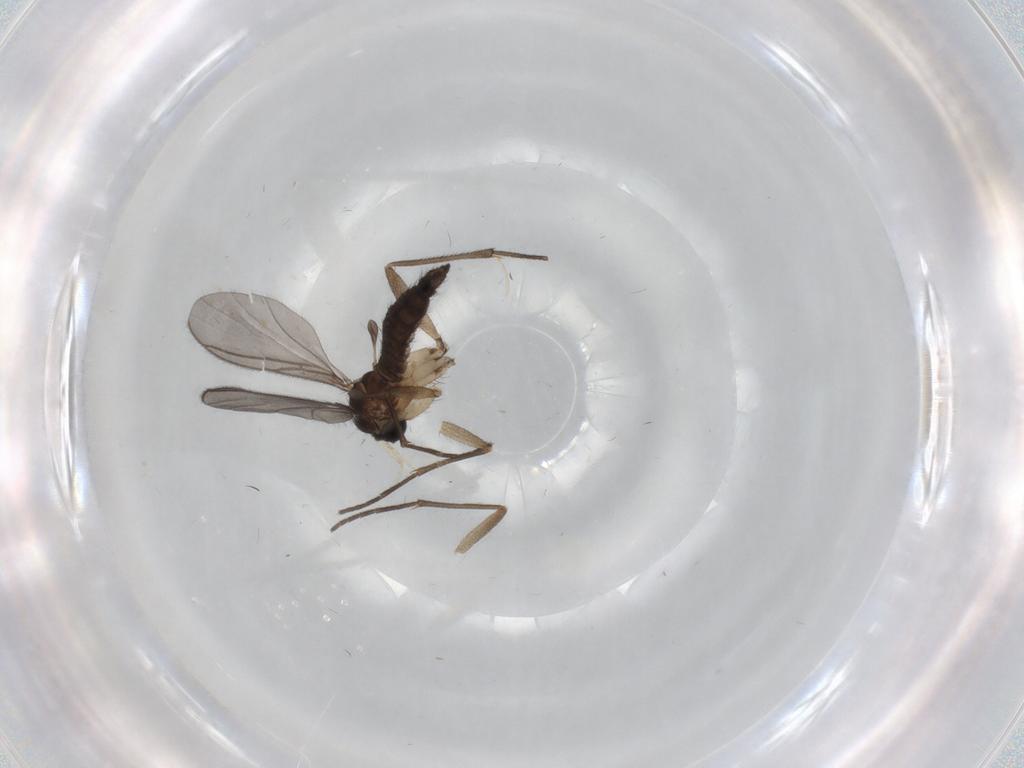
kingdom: Animalia
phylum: Arthropoda
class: Insecta
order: Diptera
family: Sciaridae
